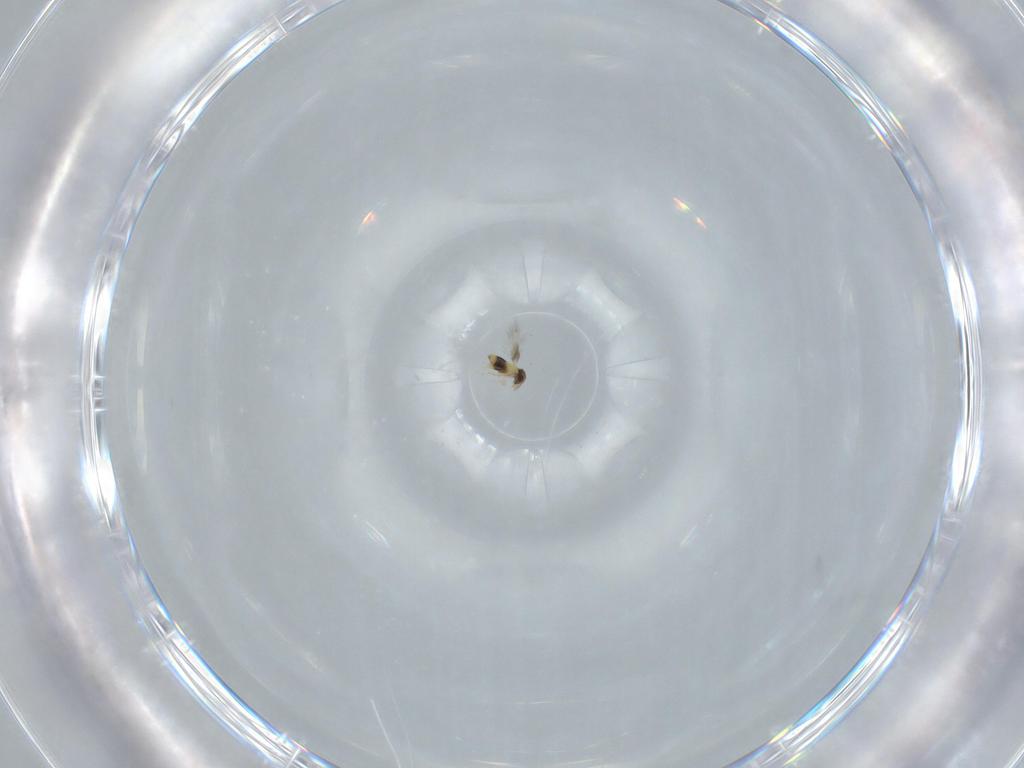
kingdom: Animalia
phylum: Arthropoda
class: Insecta
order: Hymenoptera
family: Signiphoridae
